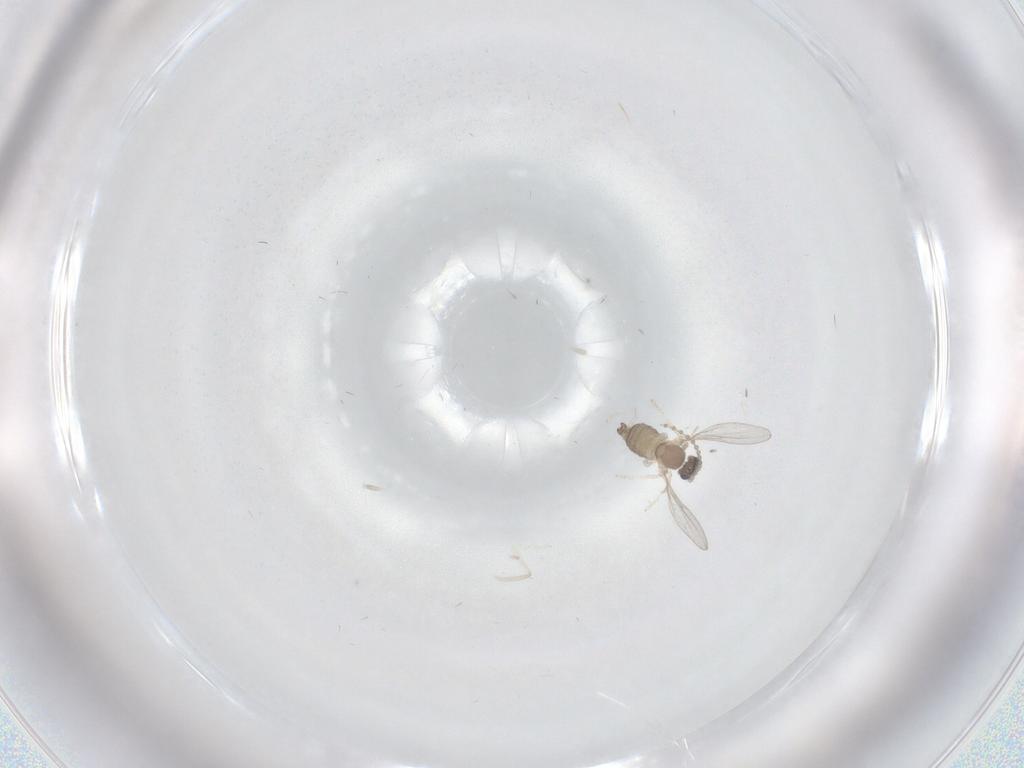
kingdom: Animalia
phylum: Arthropoda
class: Insecta
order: Diptera
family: Cecidomyiidae
